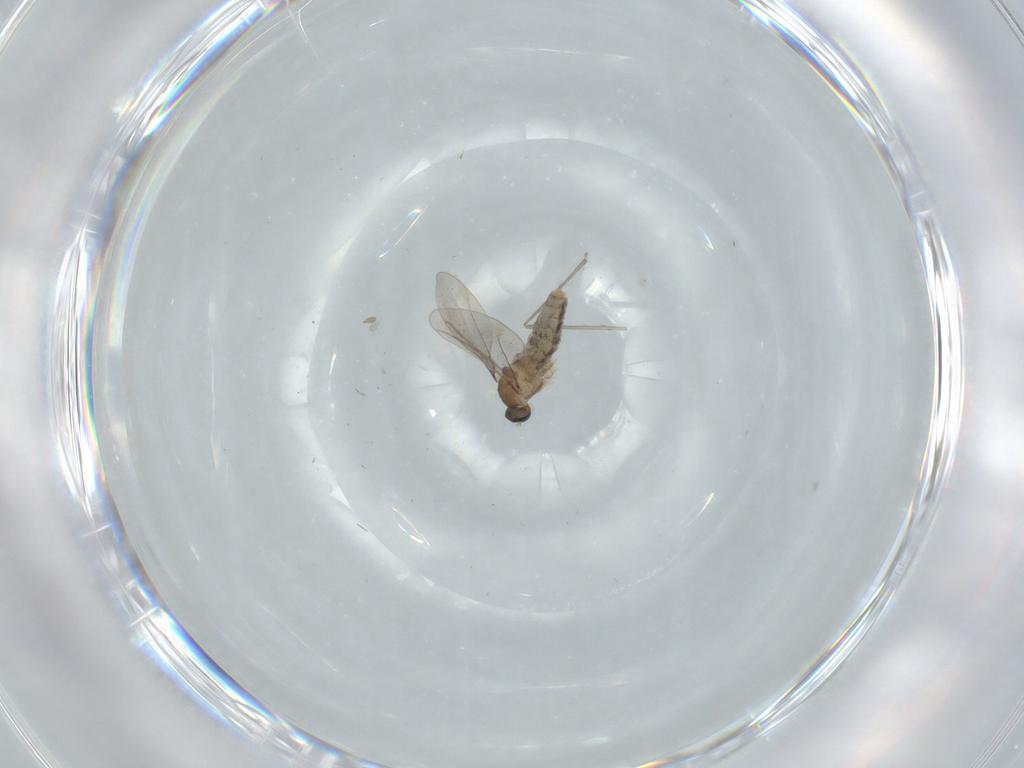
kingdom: Animalia
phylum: Arthropoda
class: Insecta
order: Diptera
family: Cecidomyiidae
